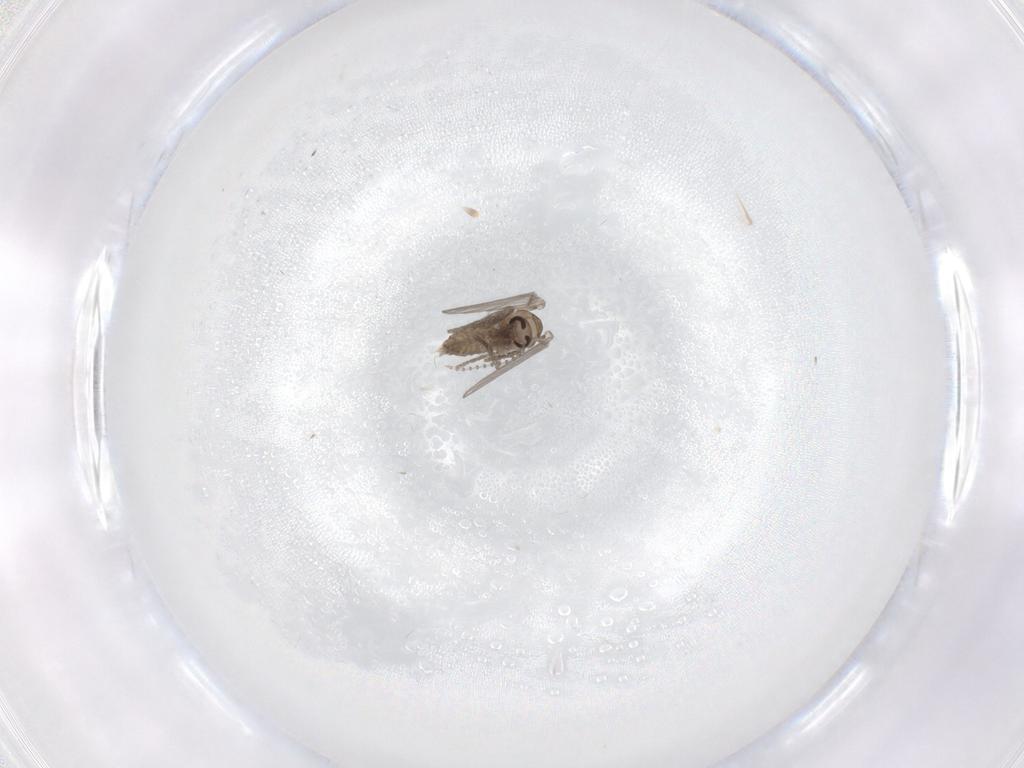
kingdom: Animalia
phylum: Arthropoda
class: Insecta
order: Diptera
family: Psychodidae
